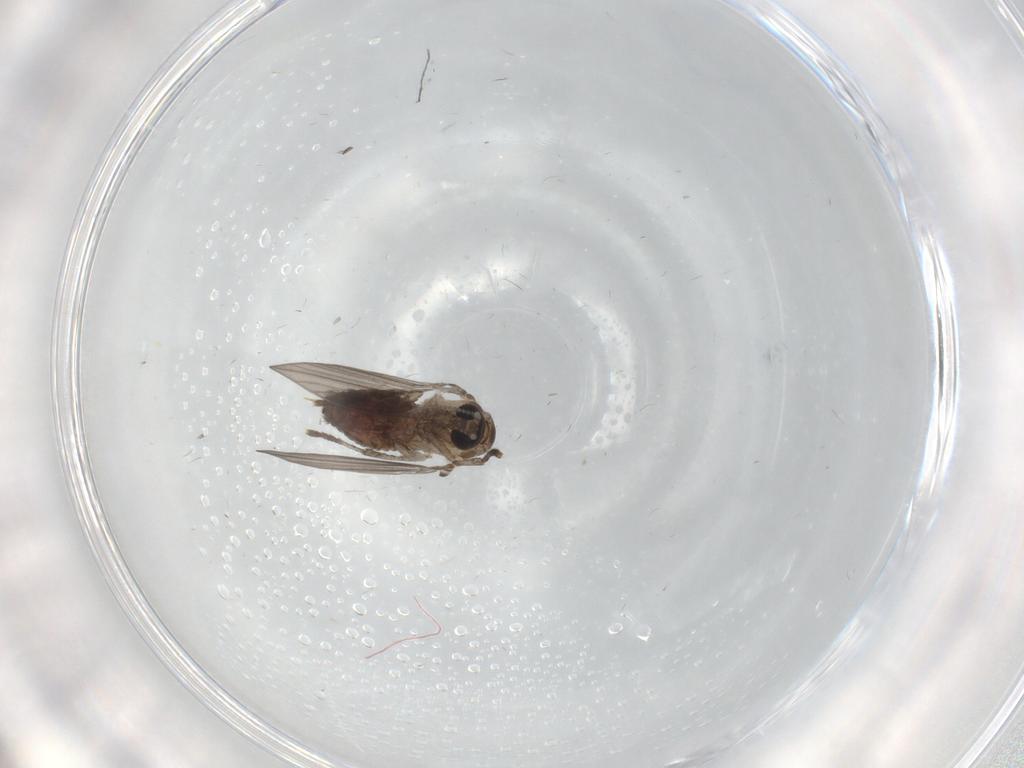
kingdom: Animalia
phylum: Arthropoda
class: Insecta
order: Diptera
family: Psychodidae
